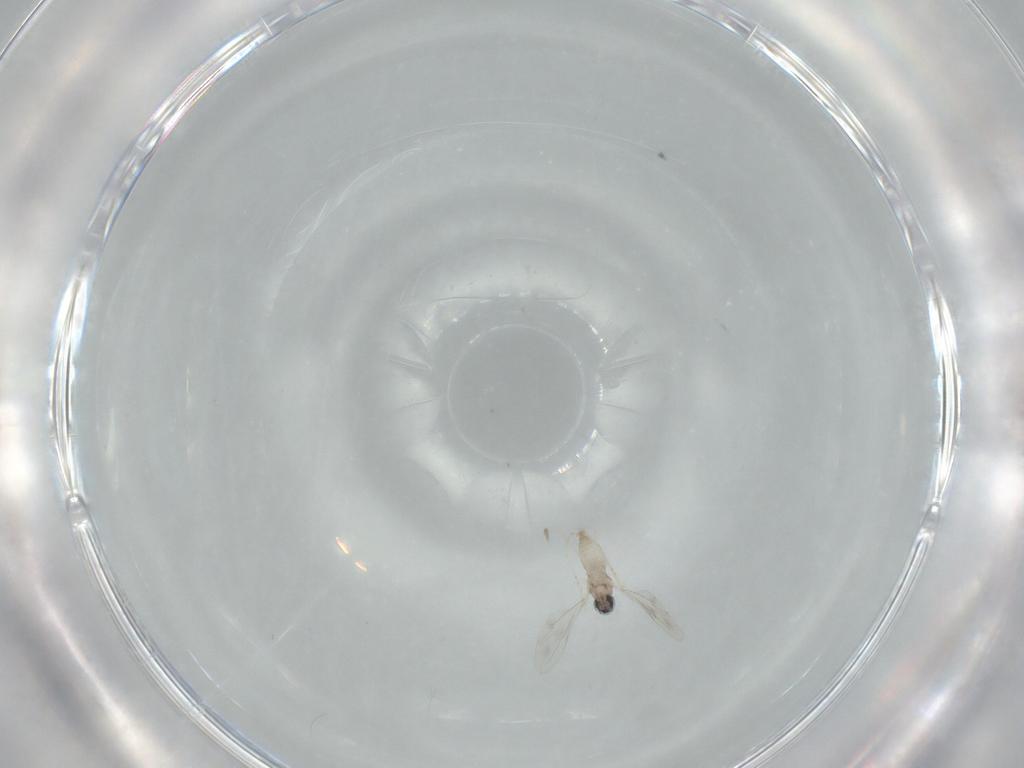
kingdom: Animalia
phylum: Arthropoda
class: Insecta
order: Diptera
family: Cecidomyiidae
